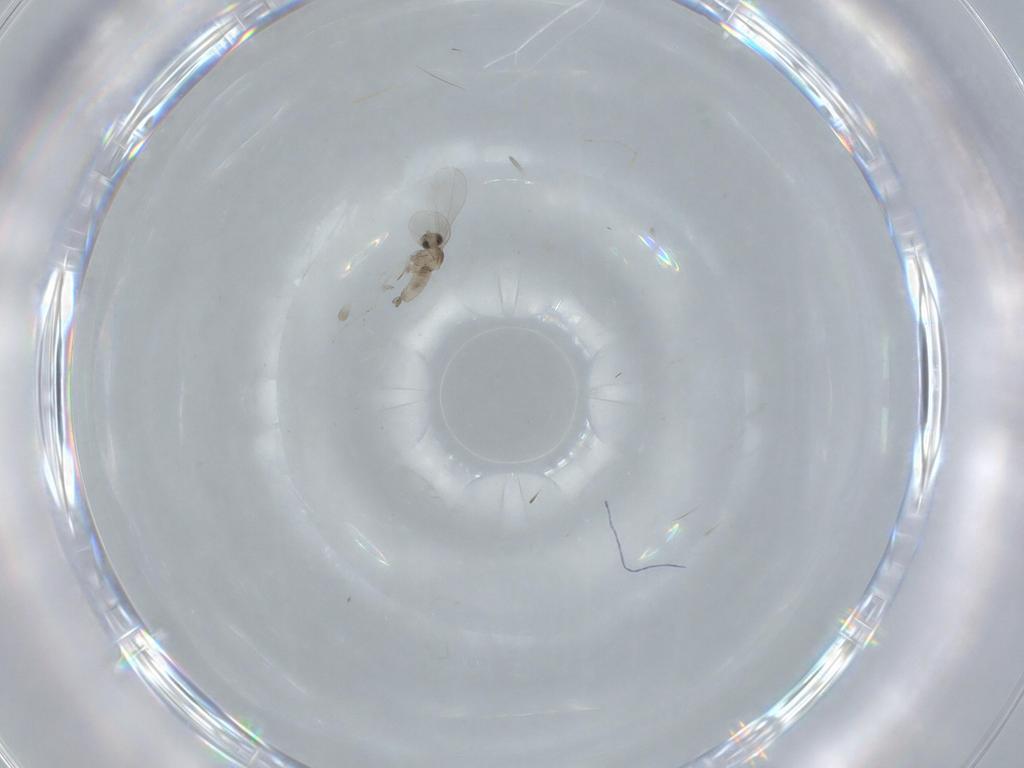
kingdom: Animalia
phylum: Arthropoda
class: Insecta
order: Diptera
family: Cecidomyiidae
